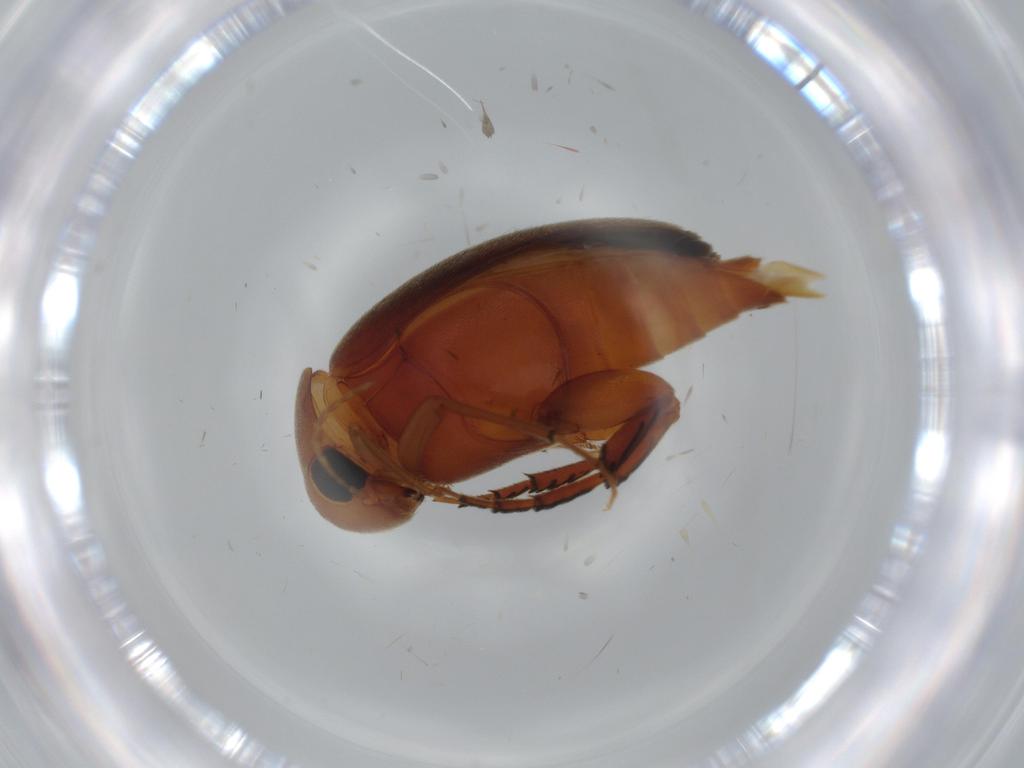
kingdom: Animalia
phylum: Arthropoda
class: Insecta
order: Coleoptera
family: Mordellidae
